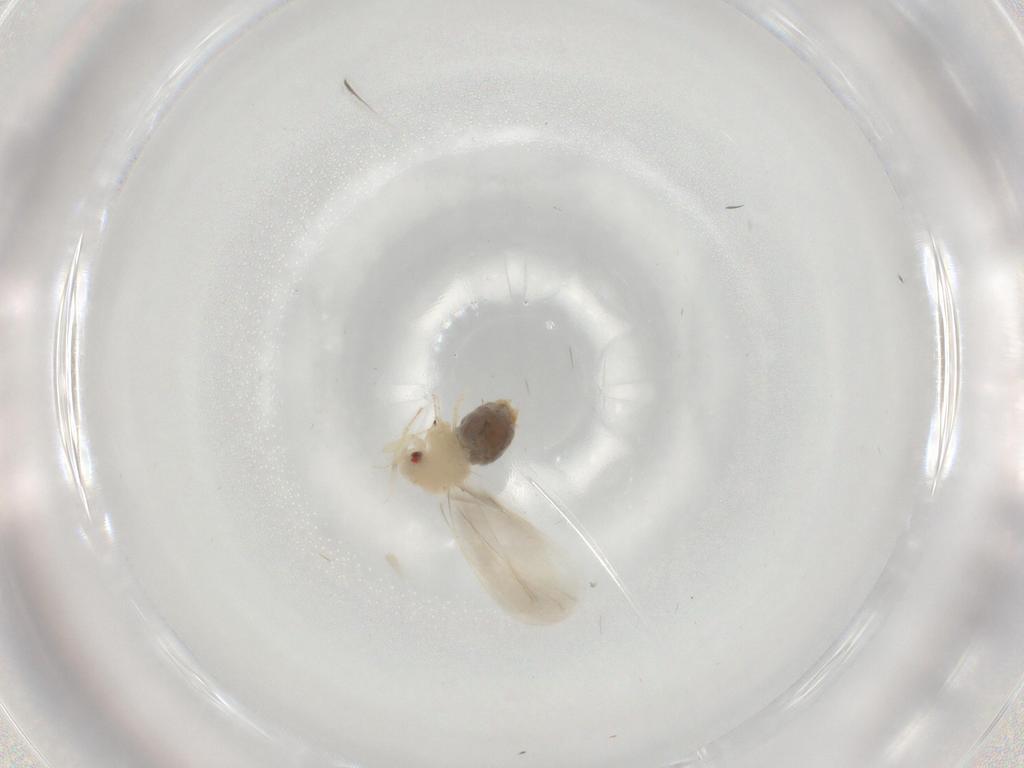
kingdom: Animalia
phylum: Arthropoda
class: Insecta
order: Hemiptera
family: Aleyrodidae
